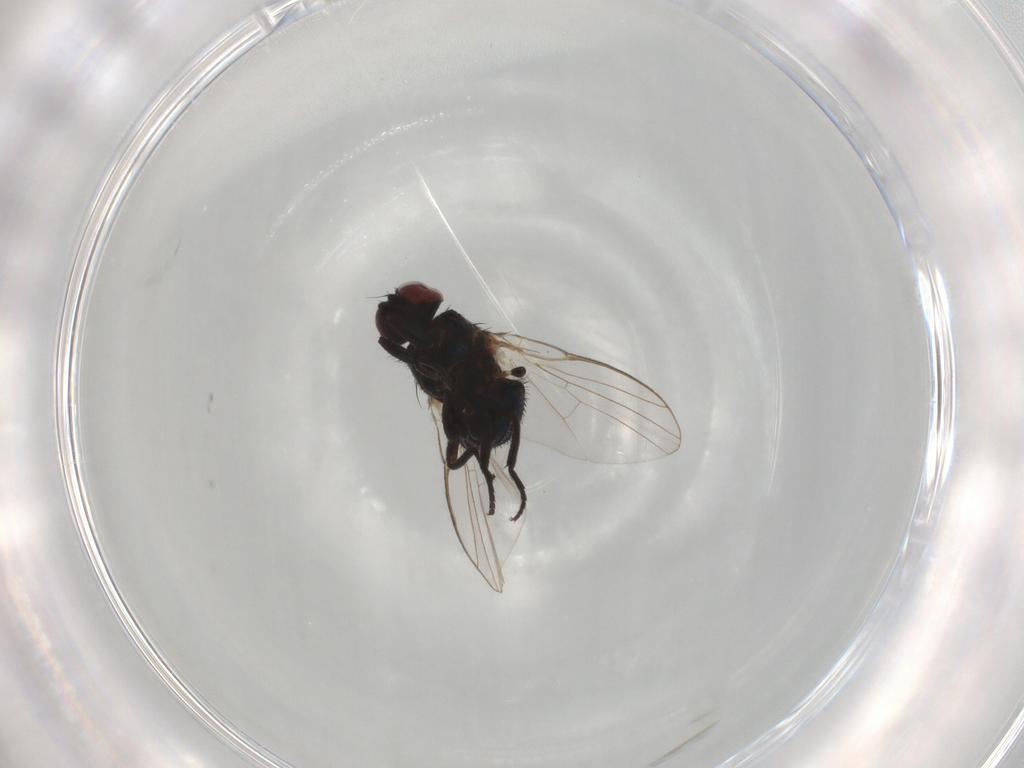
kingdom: Animalia
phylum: Arthropoda
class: Insecta
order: Diptera
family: Agromyzidae
